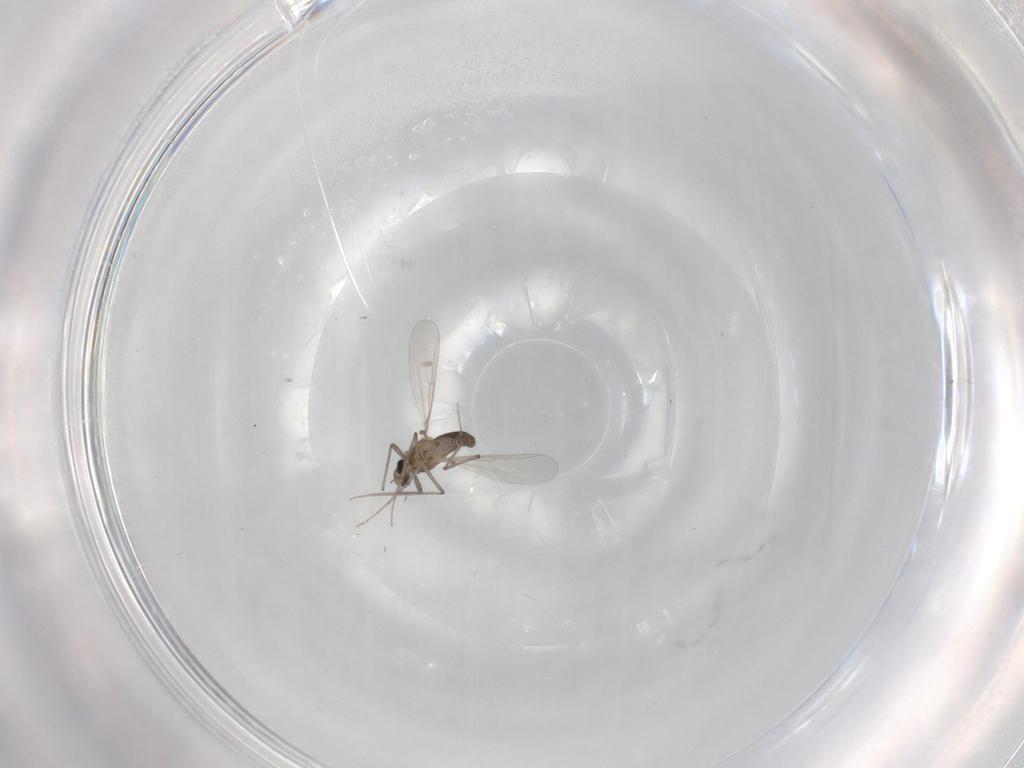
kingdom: Animalia
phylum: Arthropoda
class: Insecta
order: Diptera
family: Chironomidae
